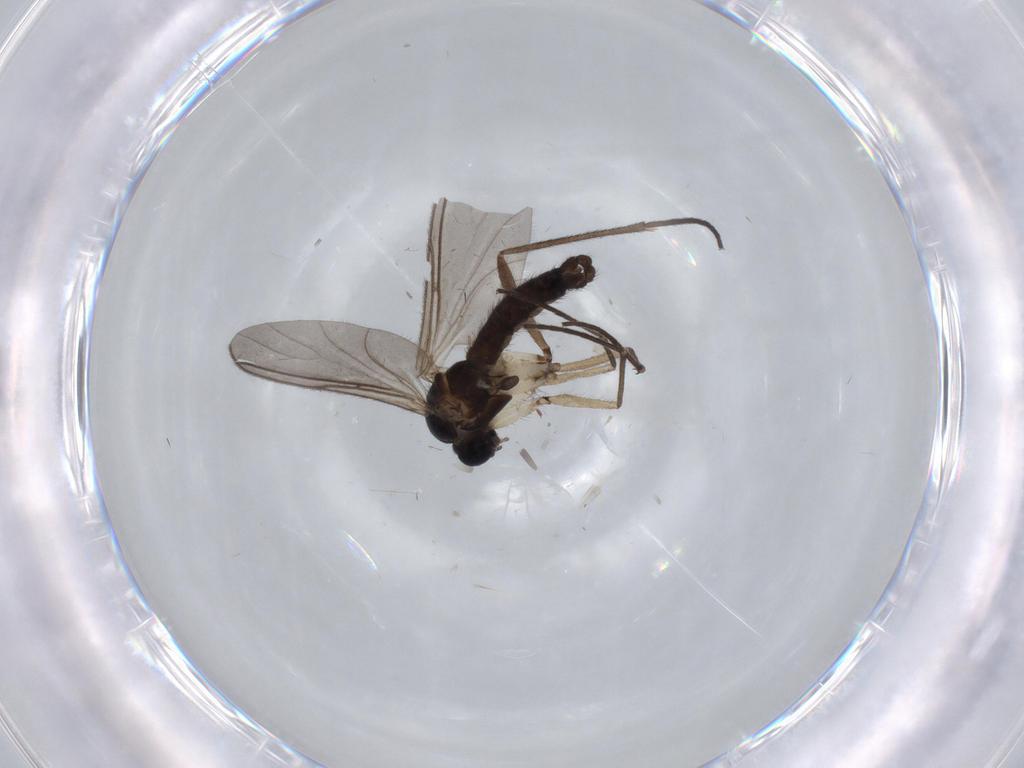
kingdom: Animalia
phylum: Arthropoda
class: Insecta
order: Diptera
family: Sciaridae
